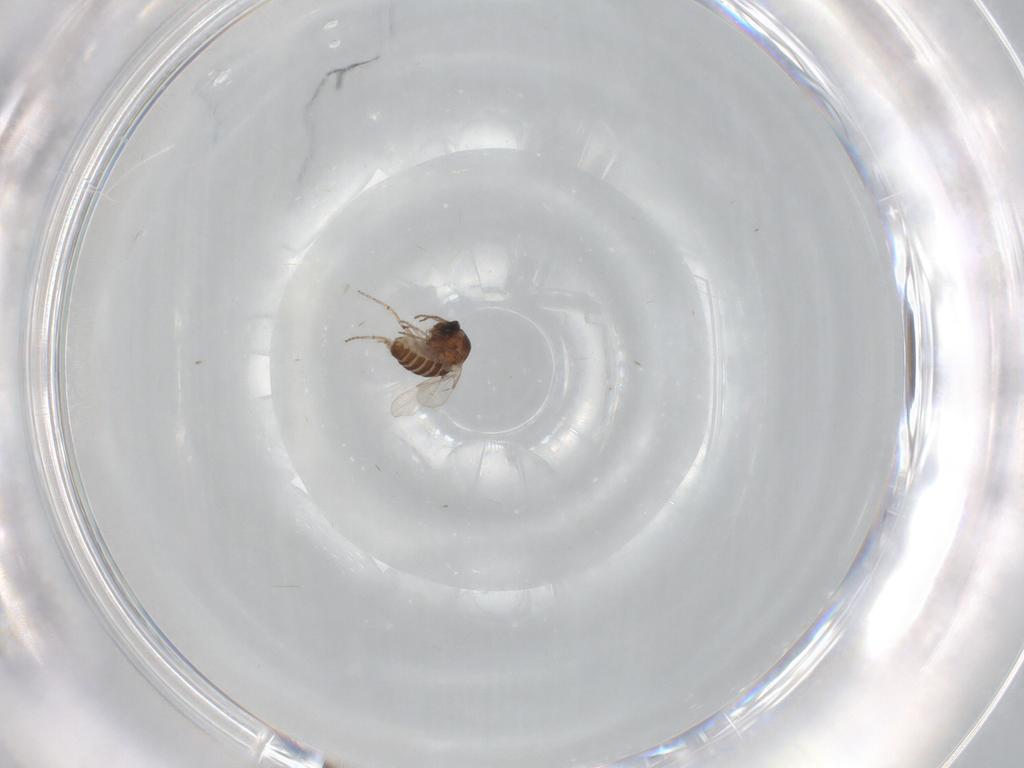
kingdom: Animalia
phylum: Arthropoda
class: Insecta
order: Diptera
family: Ceratopogonidae
